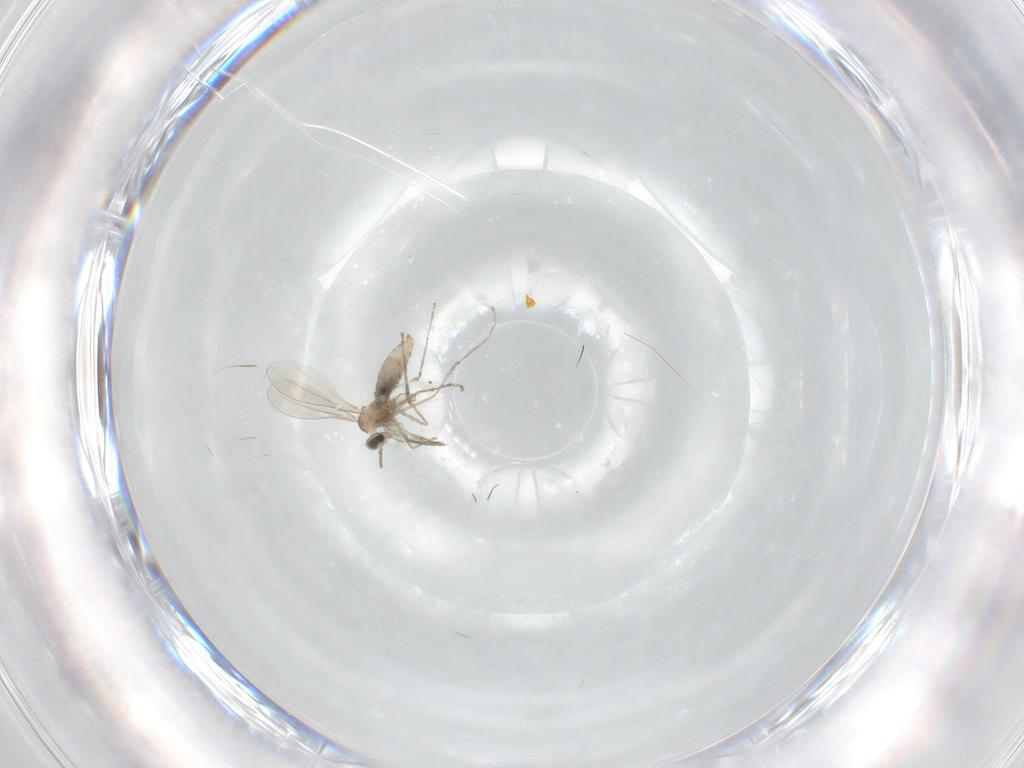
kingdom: Animalia
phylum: Arthropoda
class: Insecta
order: Diptera
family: Cecidomyiidae
